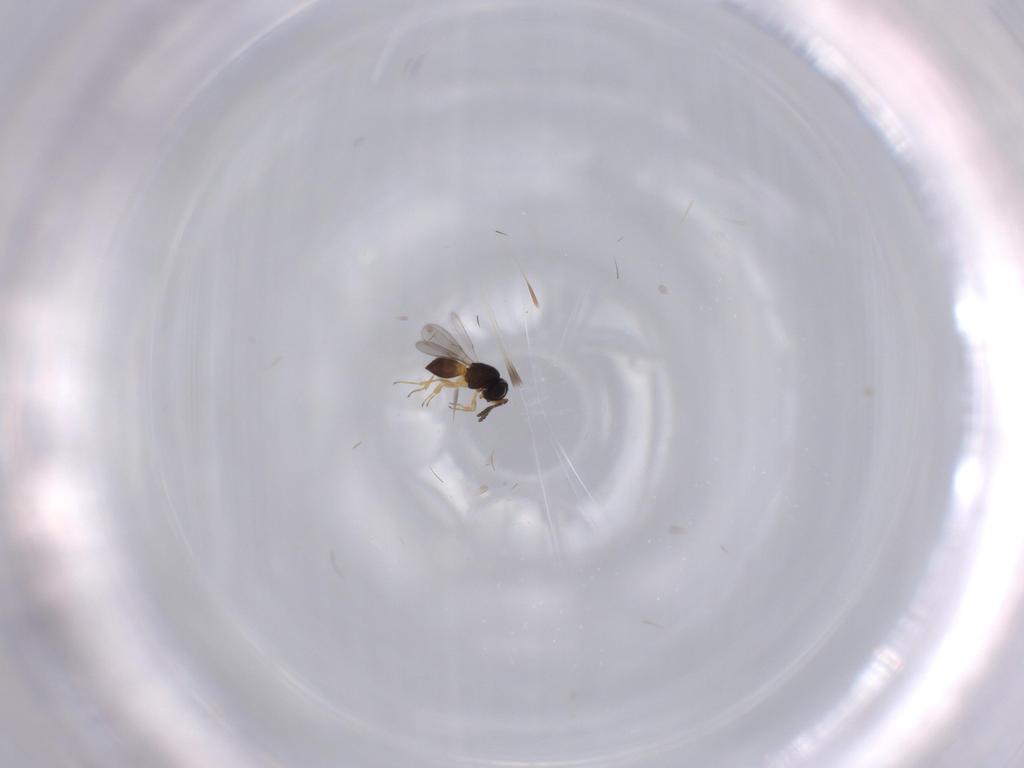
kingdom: Animalia
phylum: Arthropoda
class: Insecta
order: Hymenoptera
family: Scelionidae
